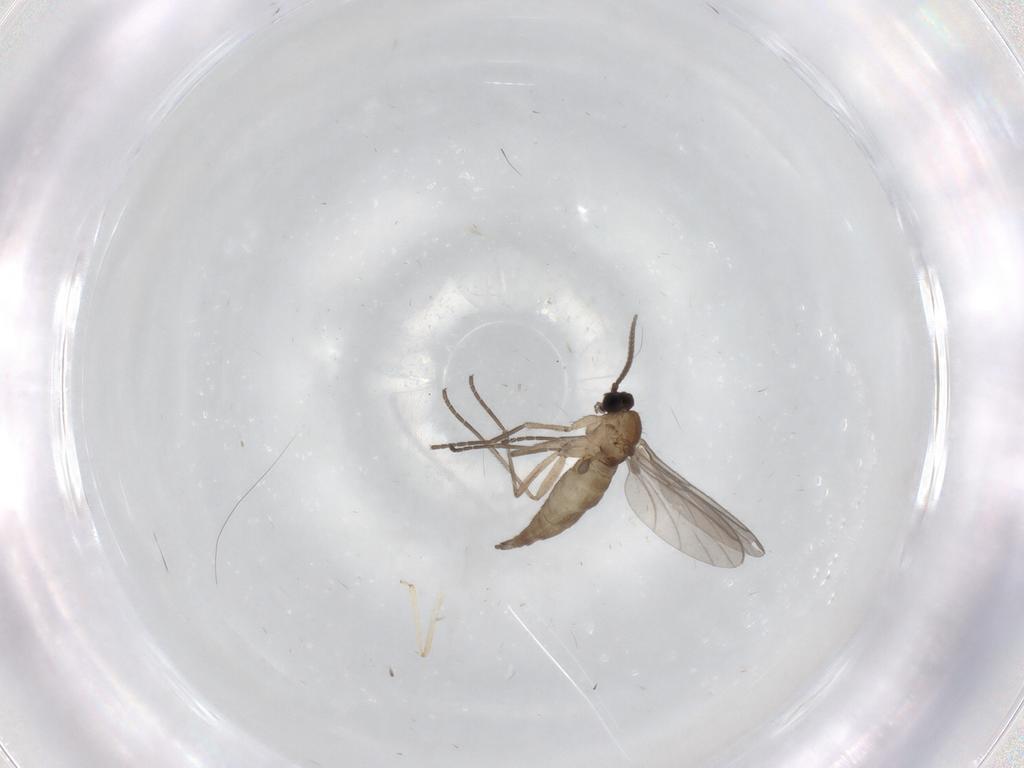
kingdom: Animalia
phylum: Arthropoda
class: Insecta
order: Diptera
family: Sciaridae
